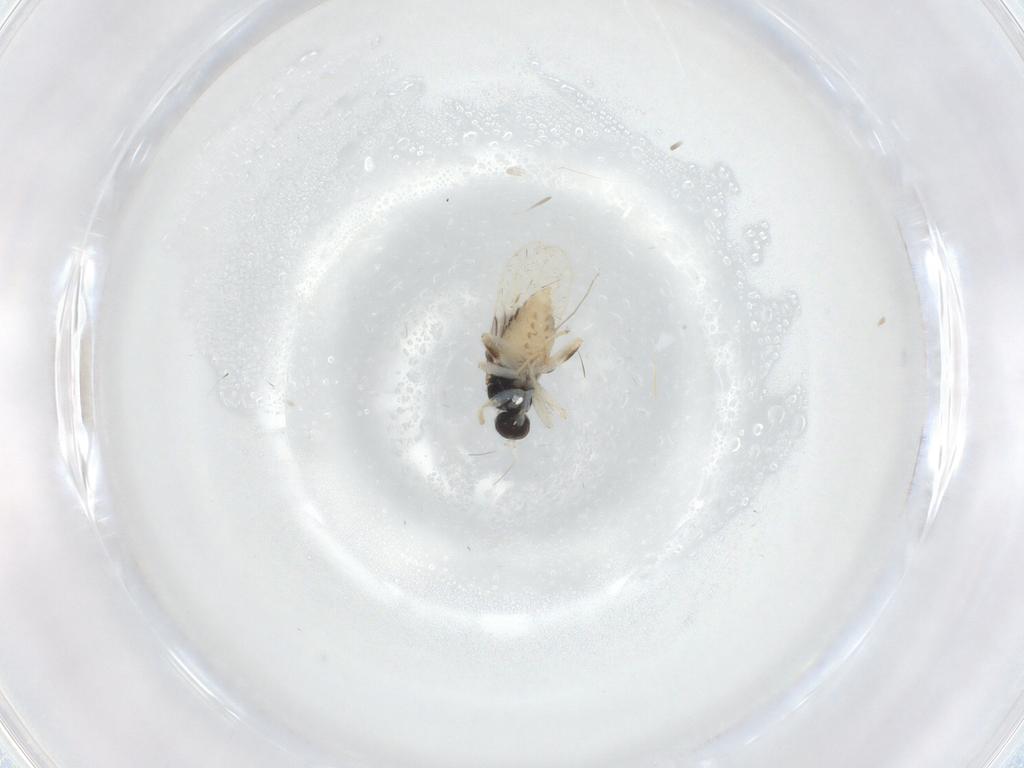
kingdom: Animalia
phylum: Arthropoda
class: Insecta
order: Diptera
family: Hybotidae
